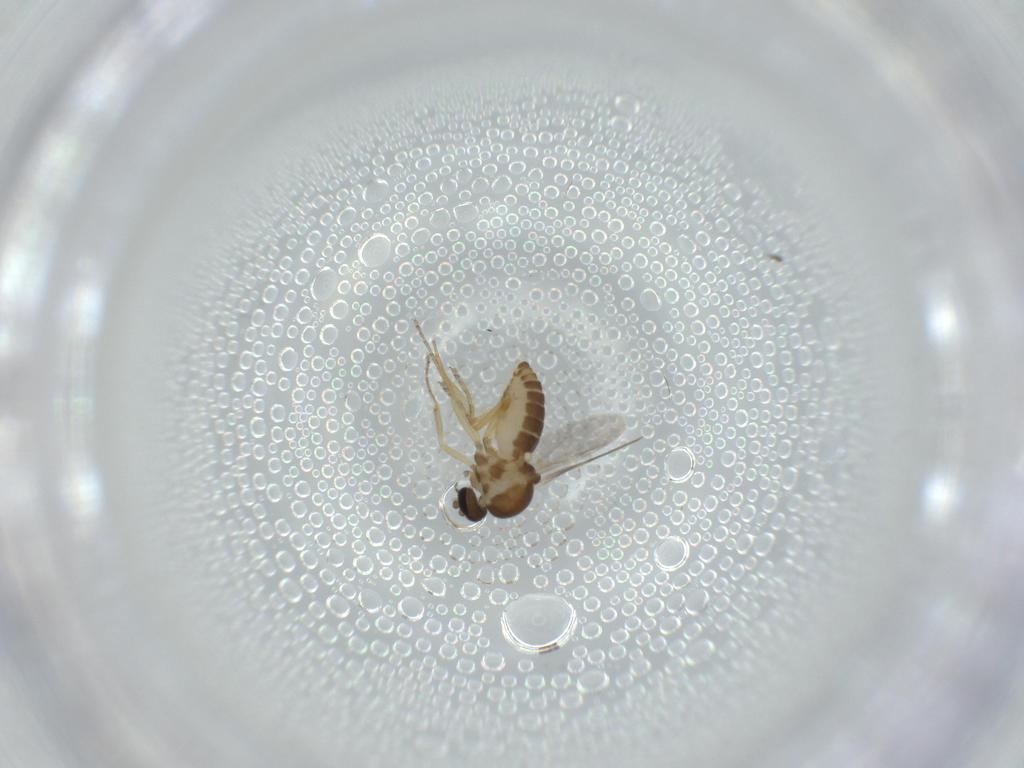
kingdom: Animalia
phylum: Arthropoda
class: Insecta
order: Diptera
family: Ceratopogonidae
